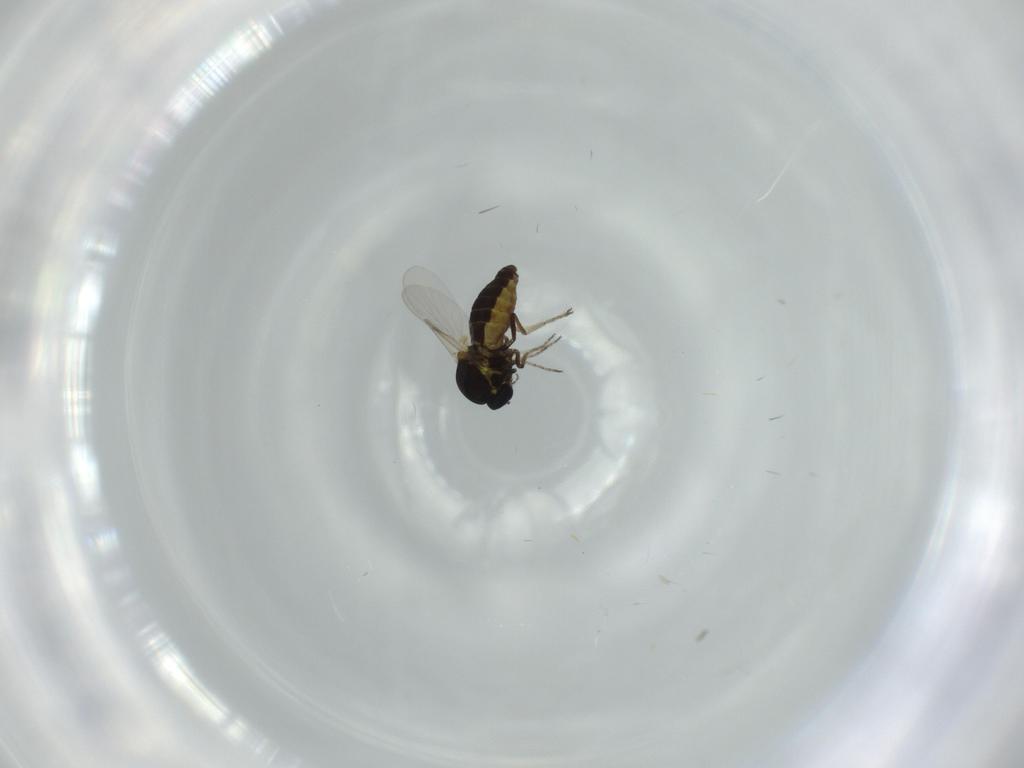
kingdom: Animalia
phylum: Arthropoda
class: Insecta
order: Diptera
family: Chironomidae
